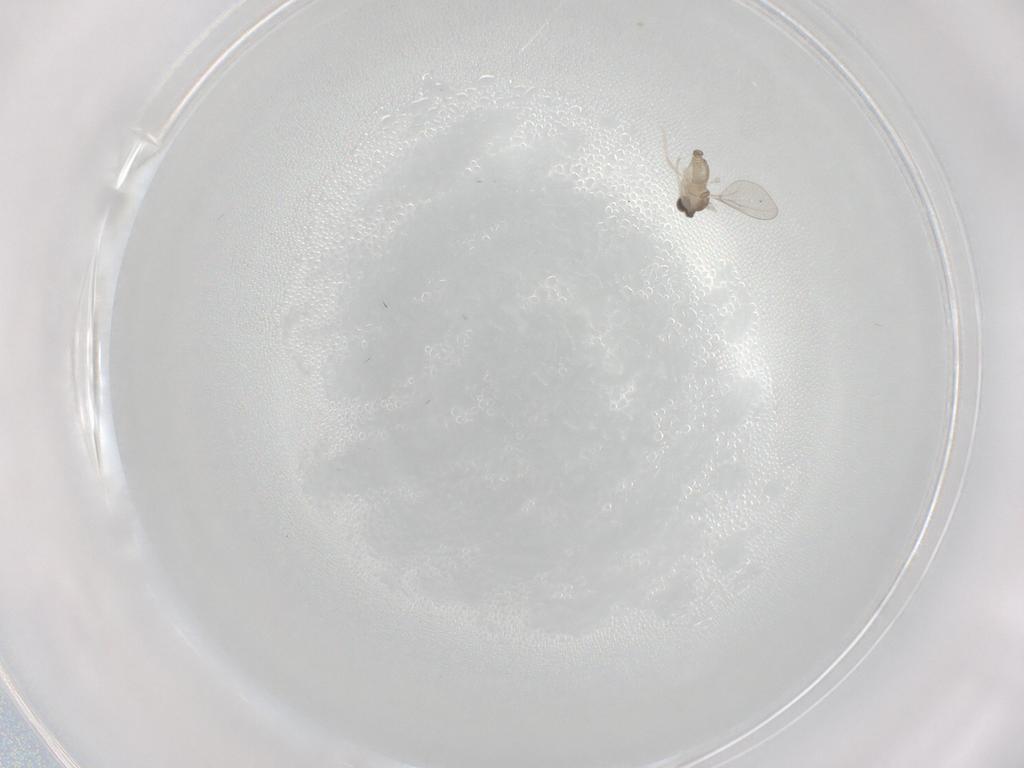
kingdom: Animalia
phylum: Arthropoda
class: Insecta
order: Diptera
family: Cecidomyiidae
